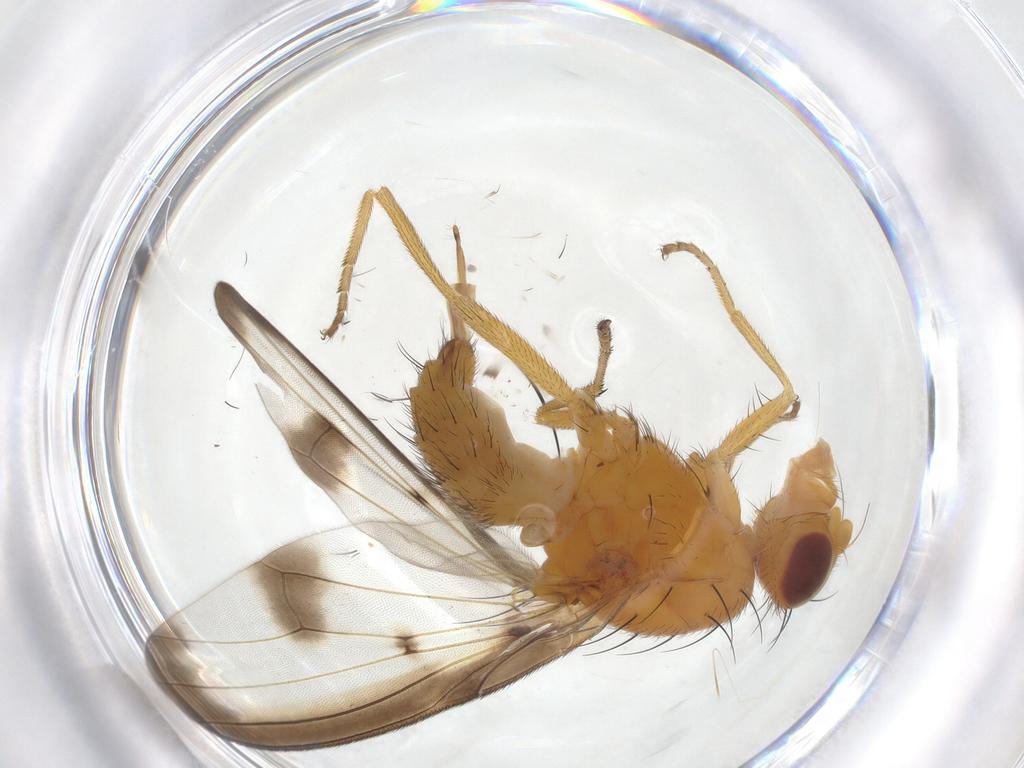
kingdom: Animalia
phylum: Arthropoda
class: Insecta
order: Diptera
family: Pallopteridae
